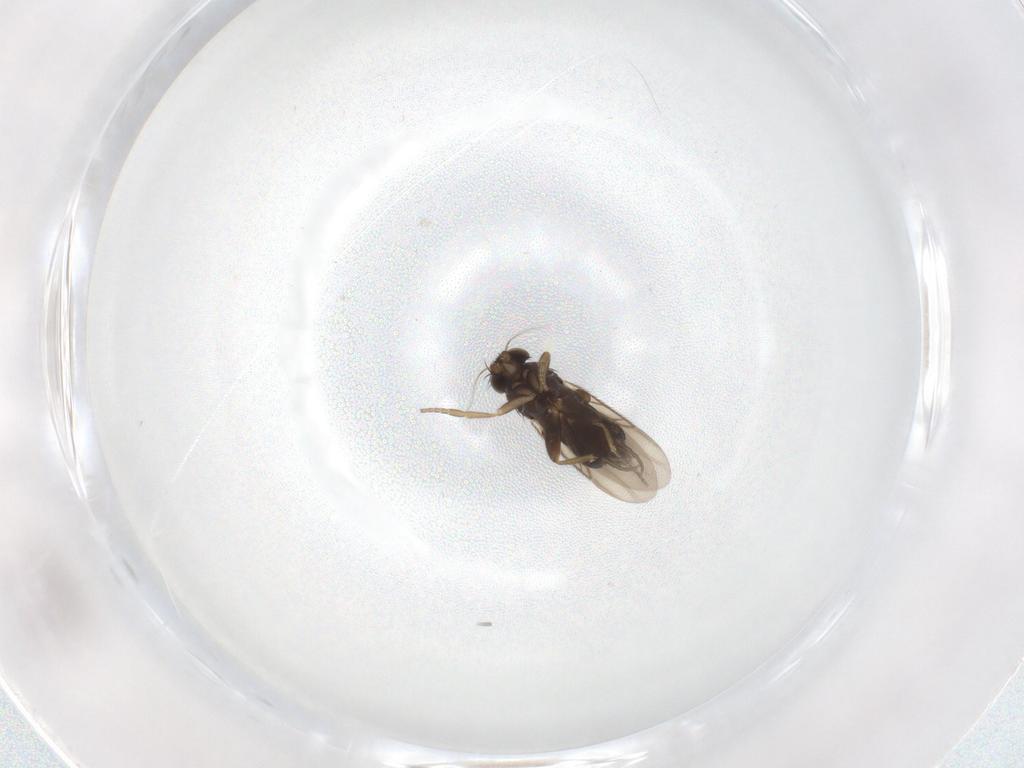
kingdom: Animalia
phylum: Arthropoda
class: Insecta
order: Diptera
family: Phoridae
